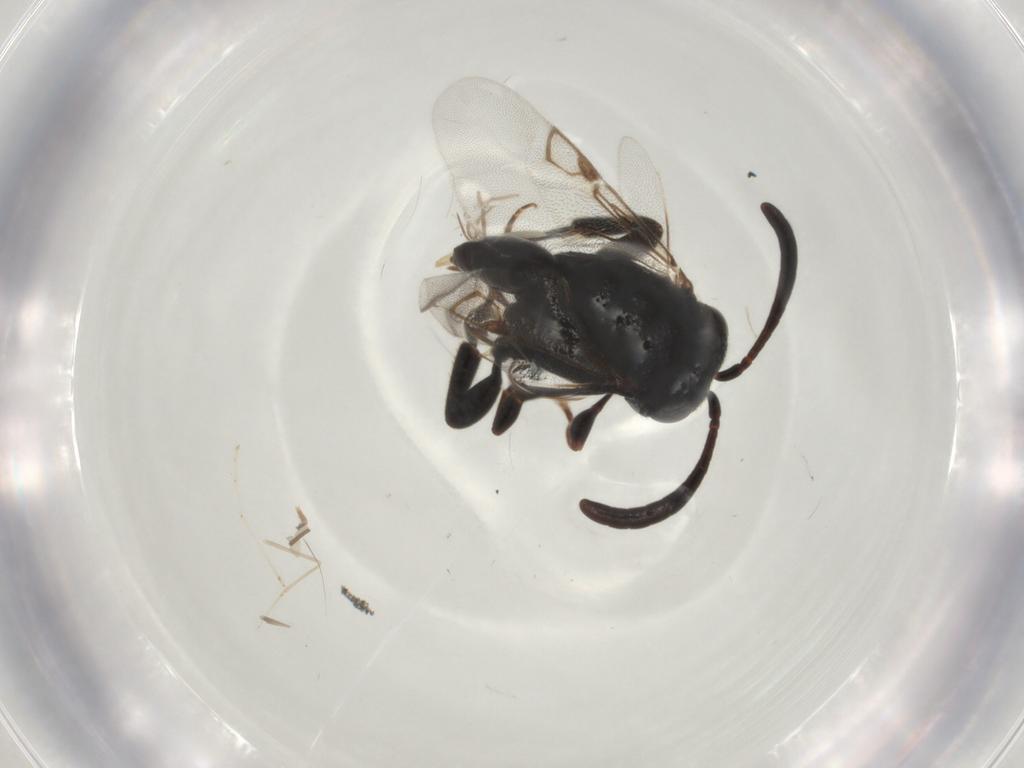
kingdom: Animalia
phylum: Arthropoda
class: Insecta
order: Hymenoptera
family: Evaniidae
